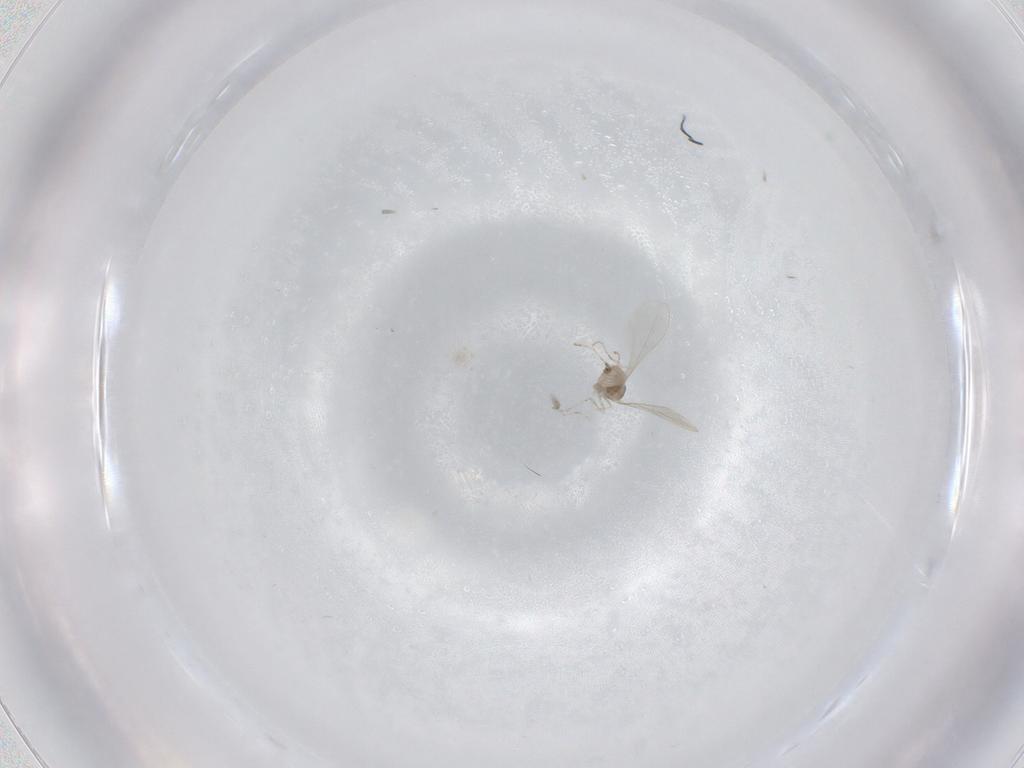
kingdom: Animalia
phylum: Arthropoda
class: Insecta
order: Diptera
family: Cecidomyiidae
